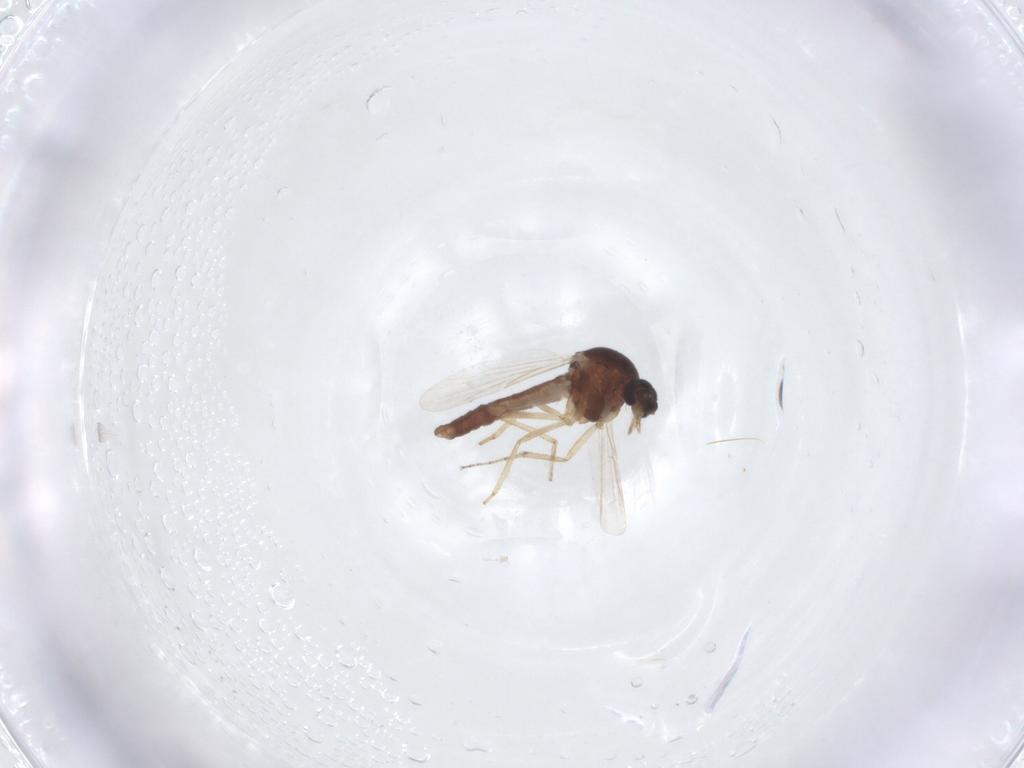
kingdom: Animalia
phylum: Arthropoda
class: Insecta
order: Diptera
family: Ceratopogonidae
